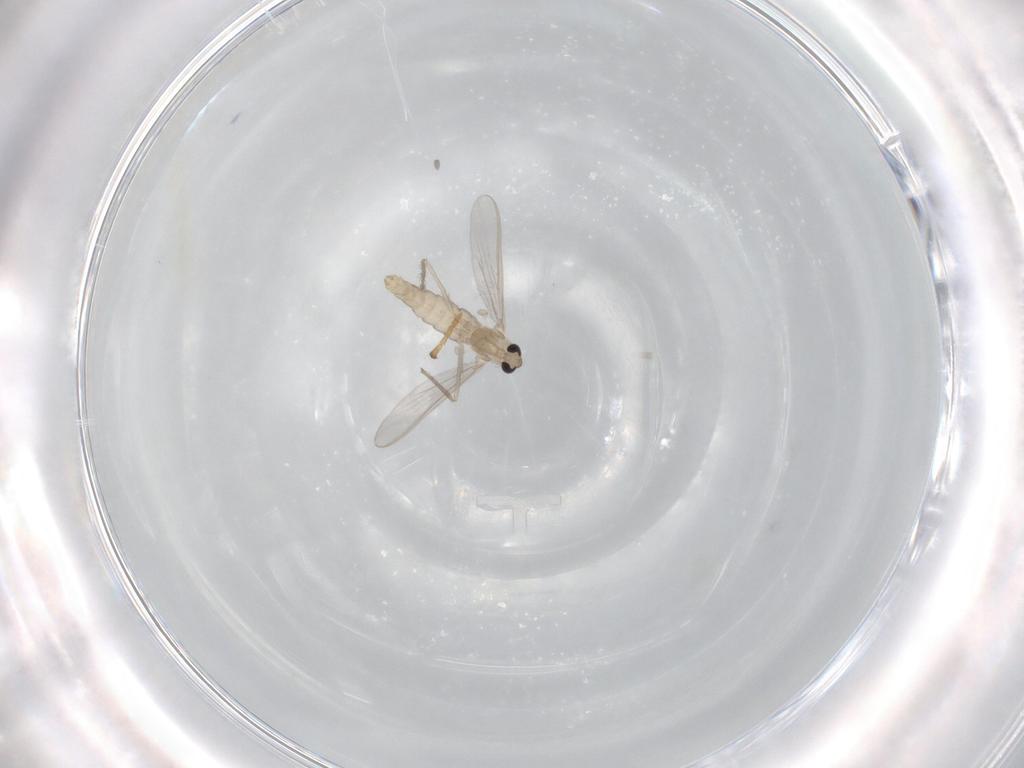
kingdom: Animalia
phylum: Arthropoda
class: Insecta
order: Diptera
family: Chironomidae
